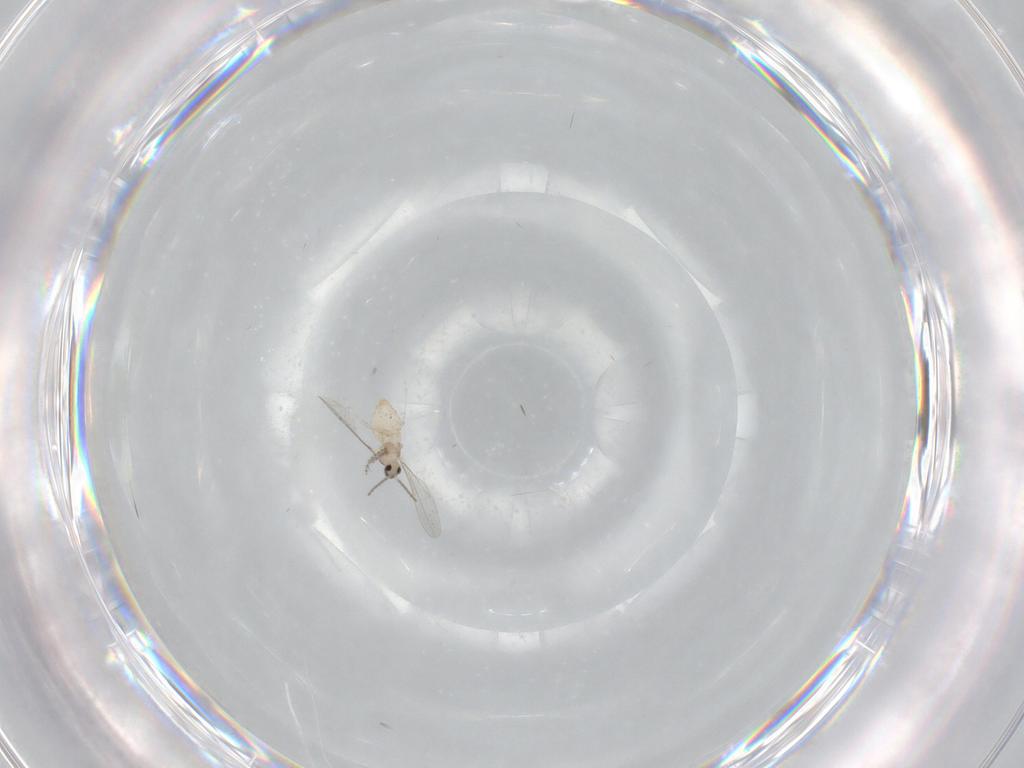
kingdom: Animalia
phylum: Arthropoda
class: Insecta
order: Diptera
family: Cecidomyiidae
